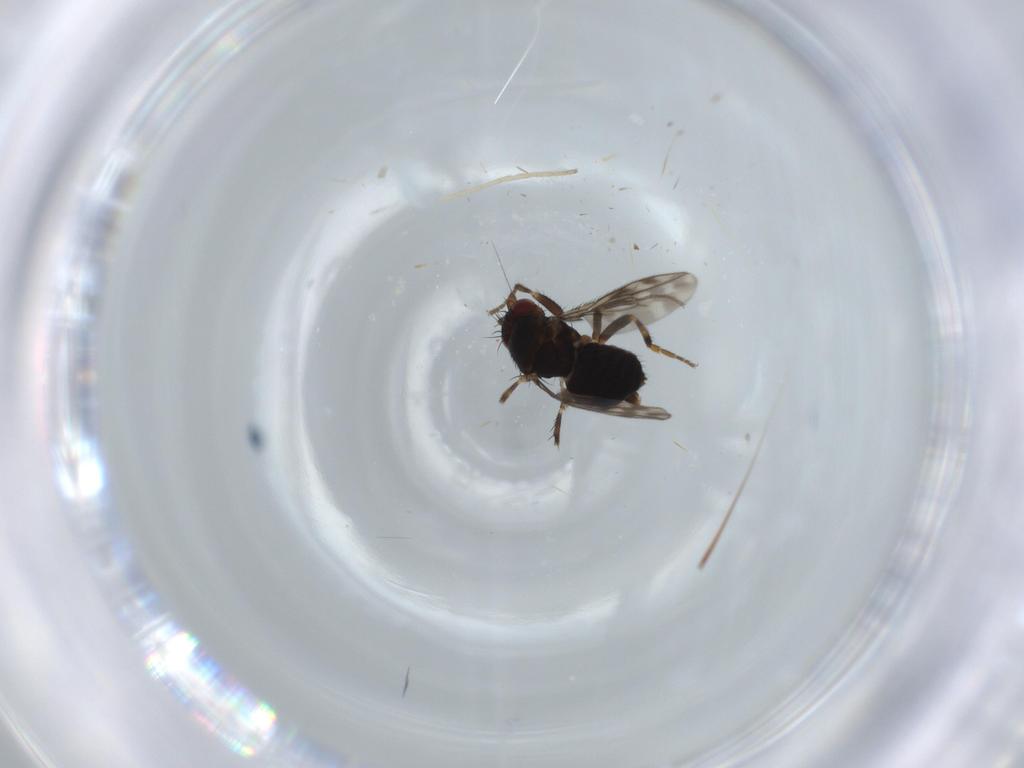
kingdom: Animalia
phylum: Arthropoda
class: Insecta
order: Diptera
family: Sphaeroceridae
